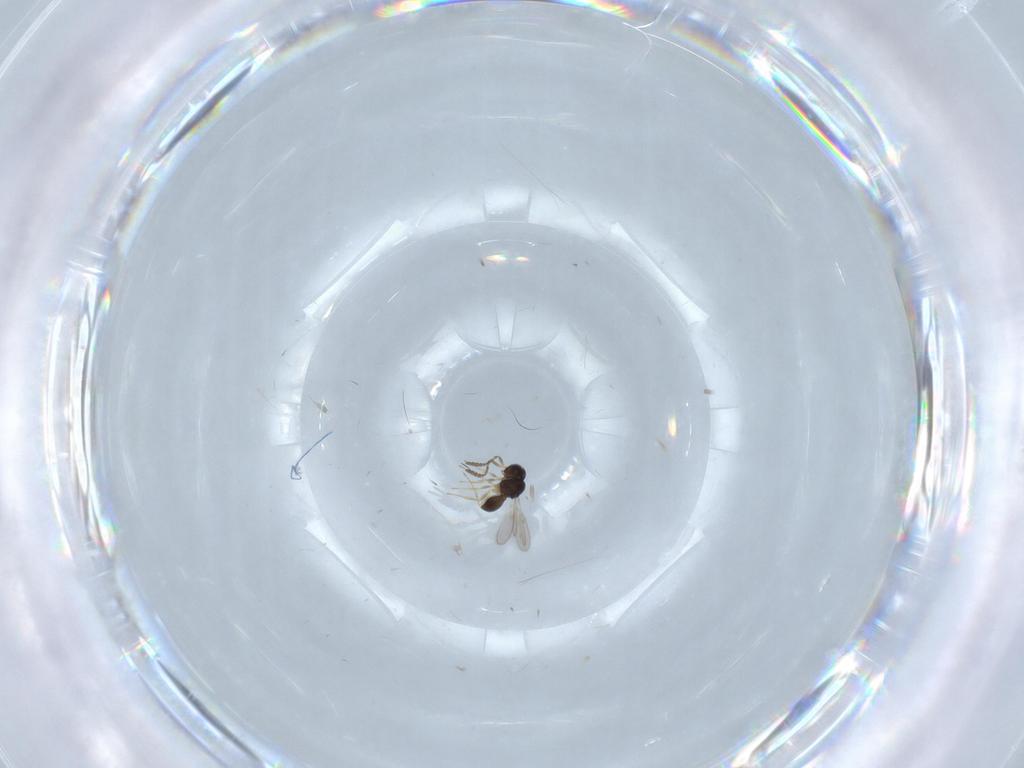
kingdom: Animalia
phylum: Arthropoda
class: Insecta
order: Hymenoptera
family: Scelionidae
